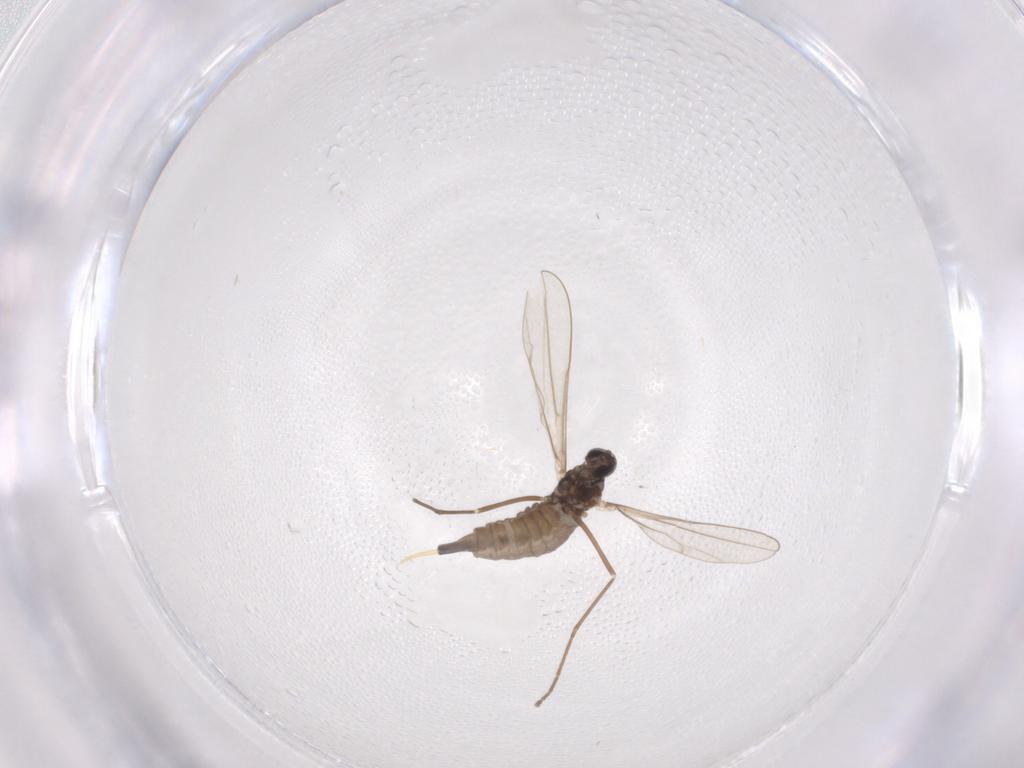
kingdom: Animalia
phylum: Arthropoda
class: Insecta
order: Diptera
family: Cecidomyiidae
